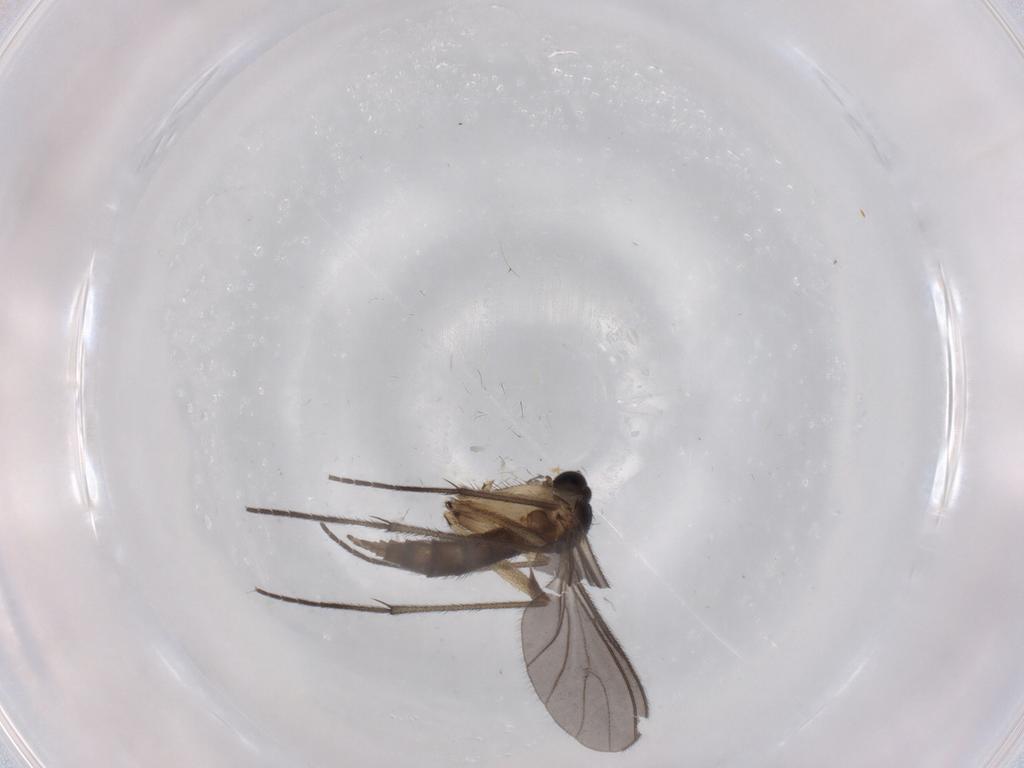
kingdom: Animalia
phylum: Arthropoda
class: Insecta
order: Diptera
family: Sciaridae
